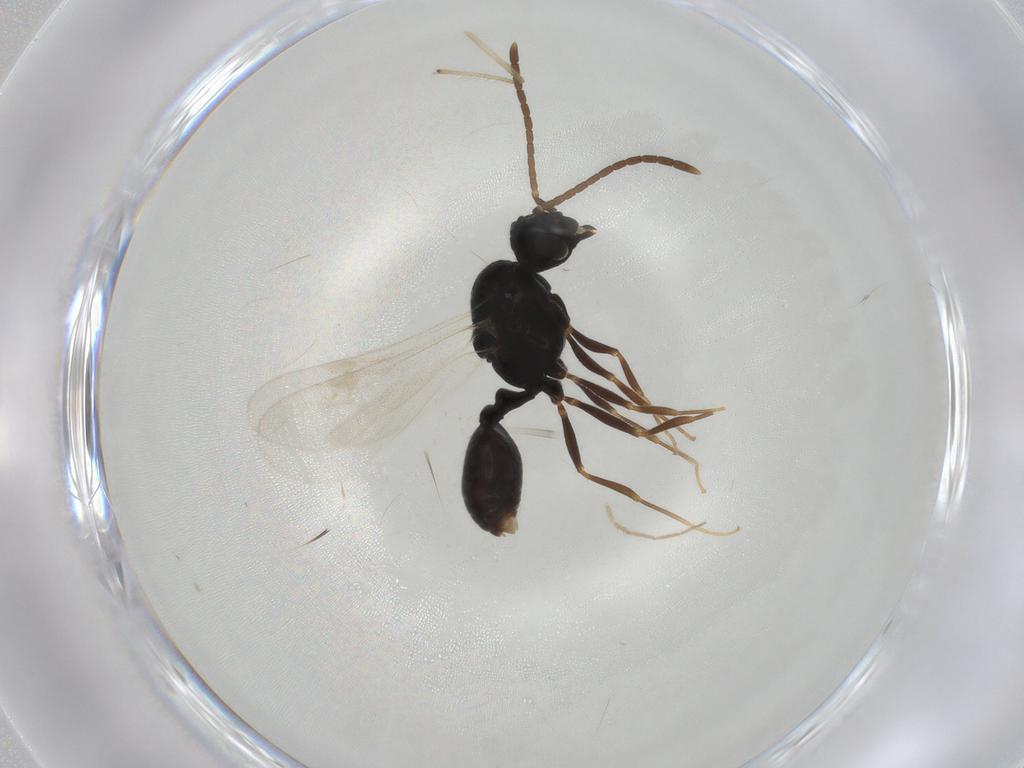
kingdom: Animalia
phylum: Arthropoda
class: Insecta
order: Hymenoptera
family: Formicidae
